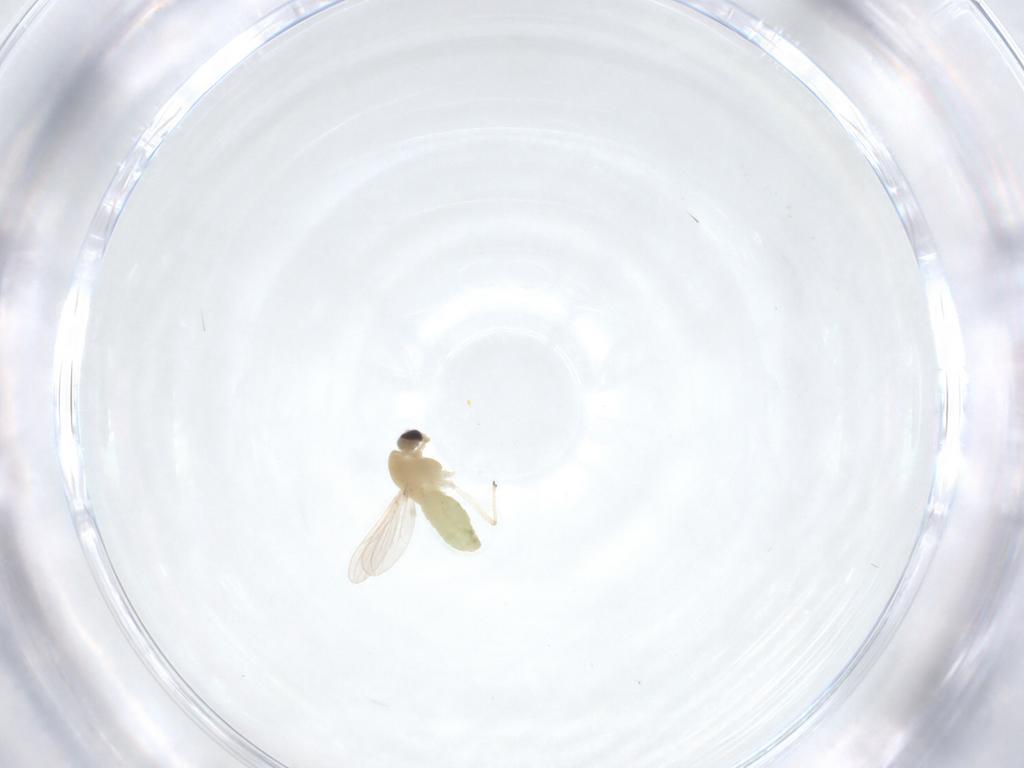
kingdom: Animalia
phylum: Arthropoda
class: Insecta
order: Diptera
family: Chironomidae
